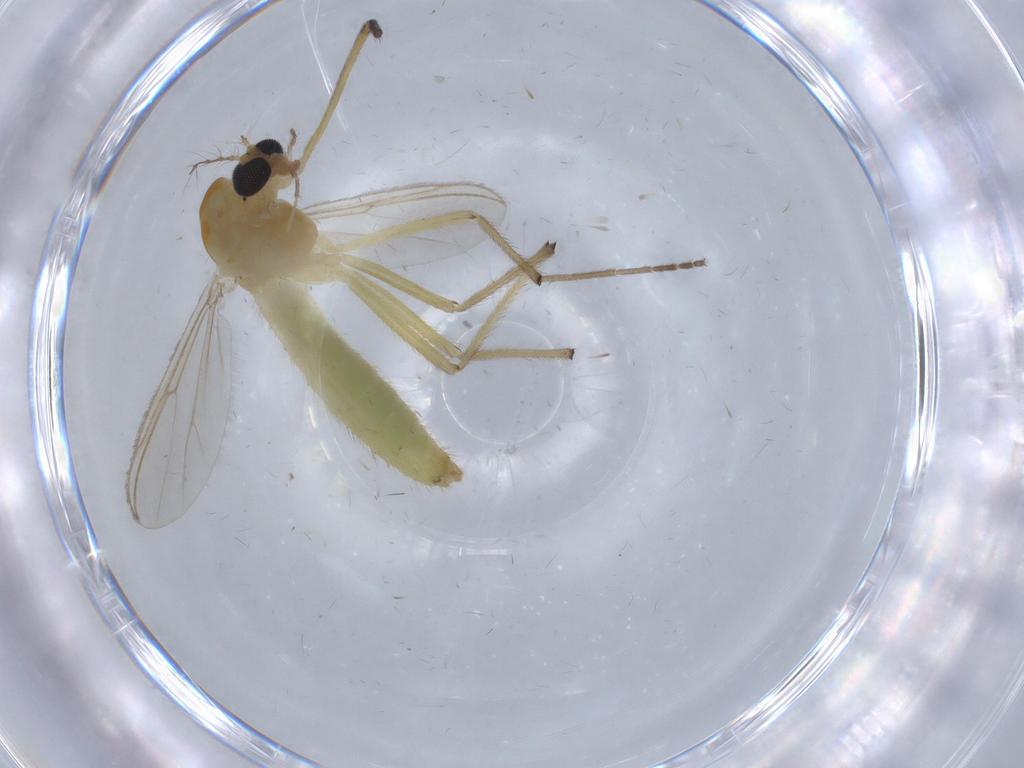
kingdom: Animalia
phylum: Arthropoda
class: Insecta
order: Diptera
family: Chironomidae
